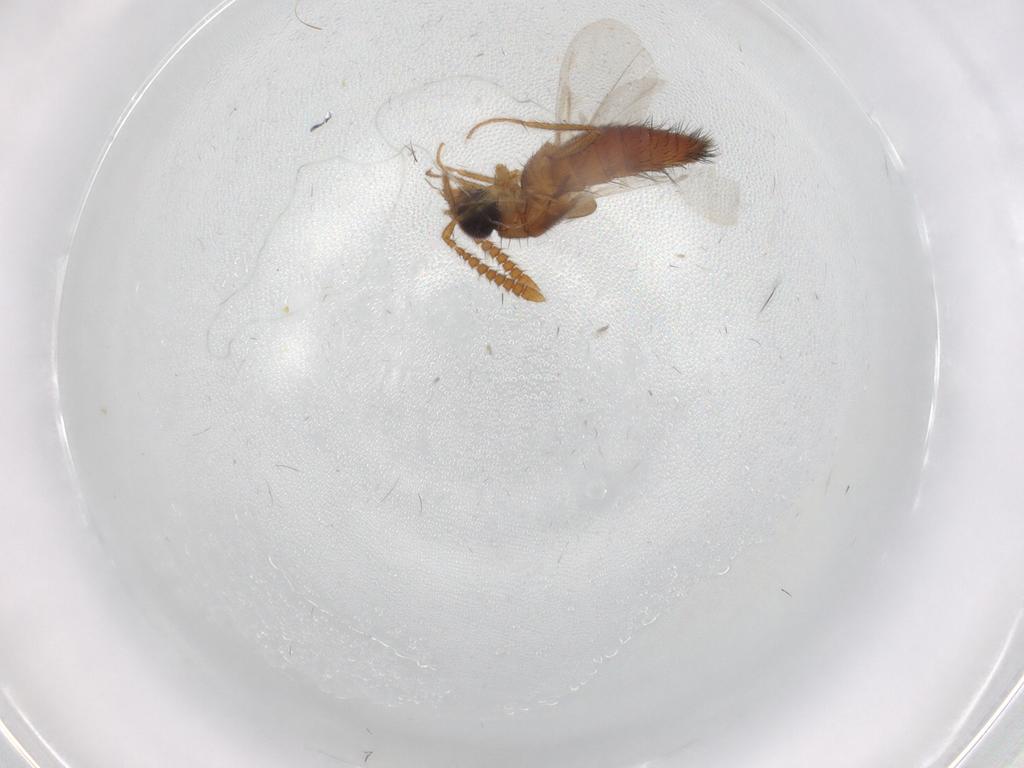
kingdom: Animalia
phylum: Arthropoda
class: Insecta
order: Coleoptera
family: Staphylinidae
